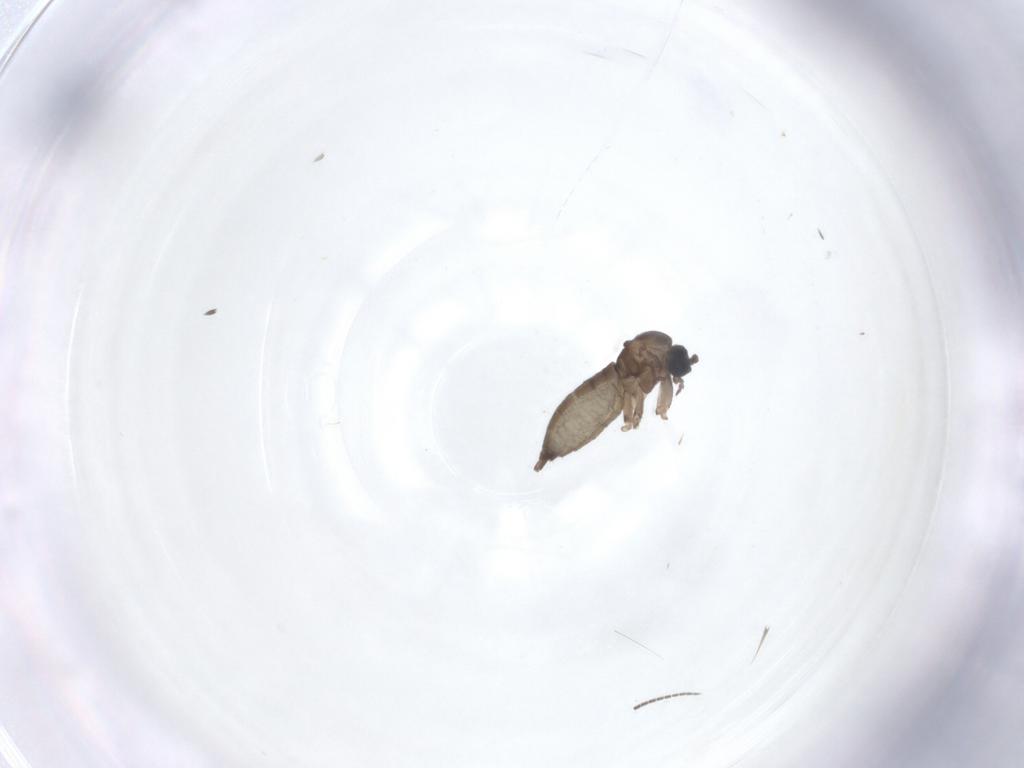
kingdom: Animalia
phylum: Arthropoda
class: Insecta
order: Diptera
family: Sciaridae
